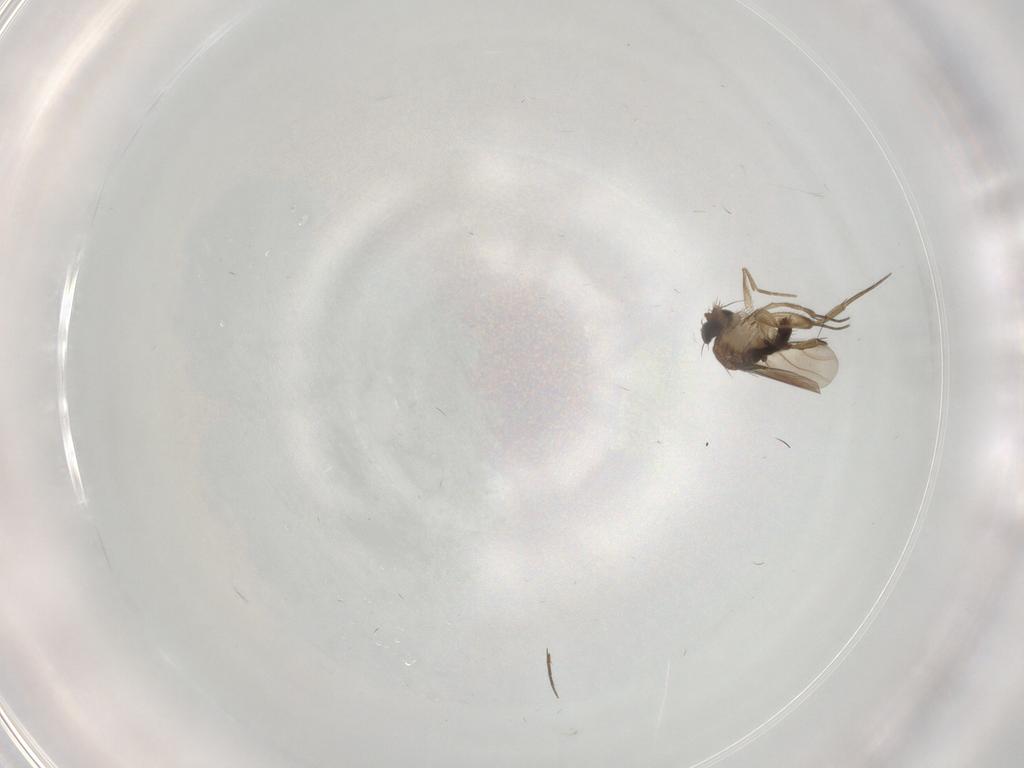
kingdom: Animalia
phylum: Arthropoda
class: Insecta
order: Diptera
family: Phoridae
